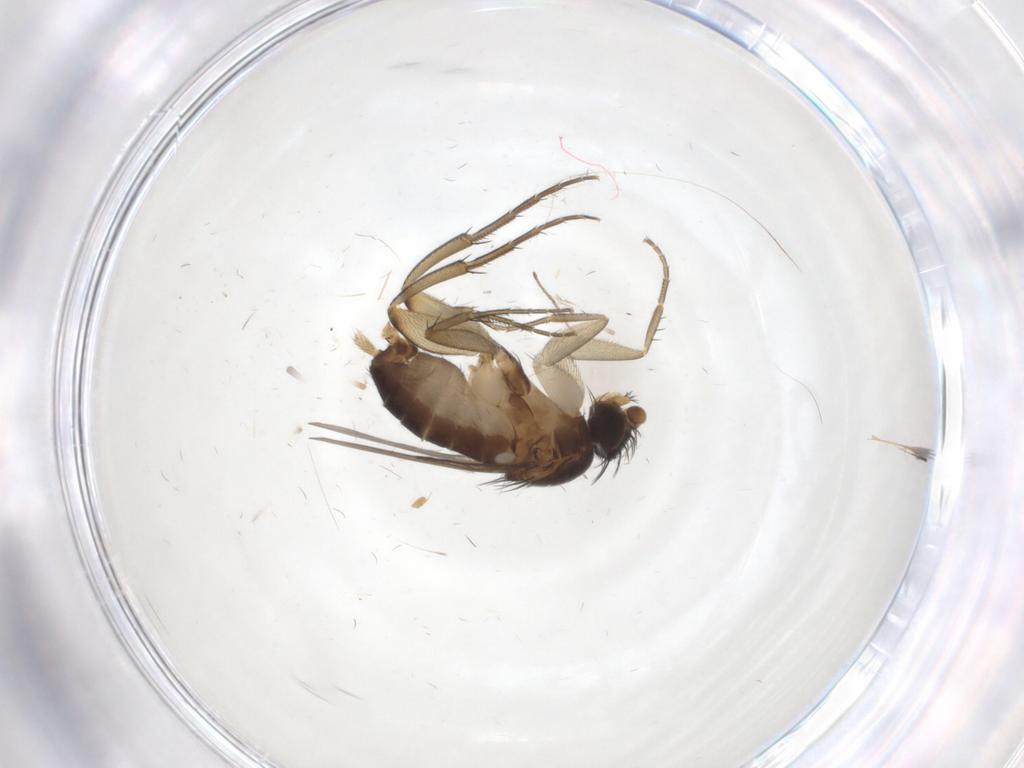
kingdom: Animalia
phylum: Arthropoda
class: Insecta
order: Diptera
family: Phoridae
